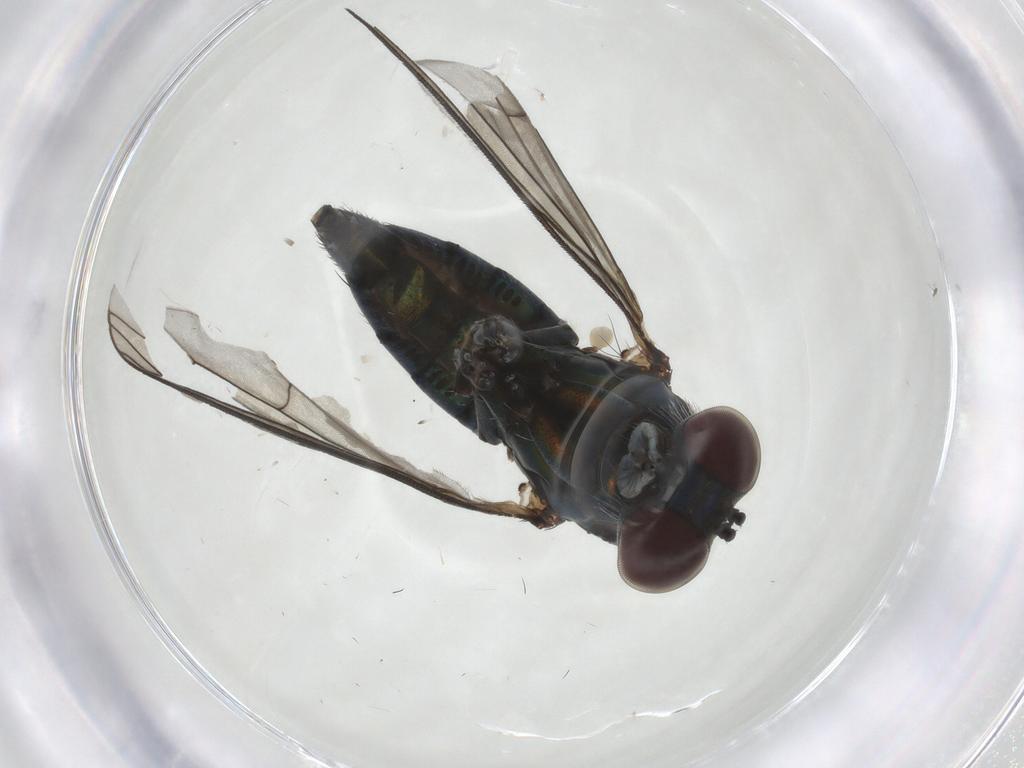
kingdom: Animalia
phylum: Arthropoda
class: Insecta
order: Diptera
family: Dolichopodidae
